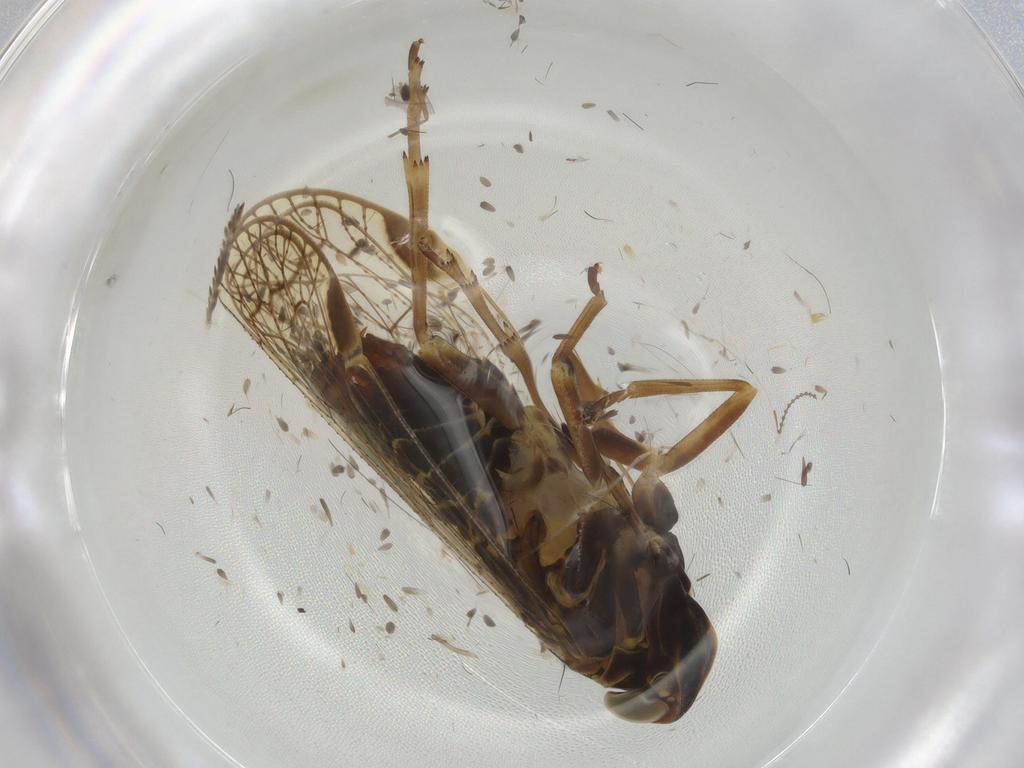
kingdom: Animalia
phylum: Arthropoda
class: Insecta
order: Hemiptera
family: Cixiidae
